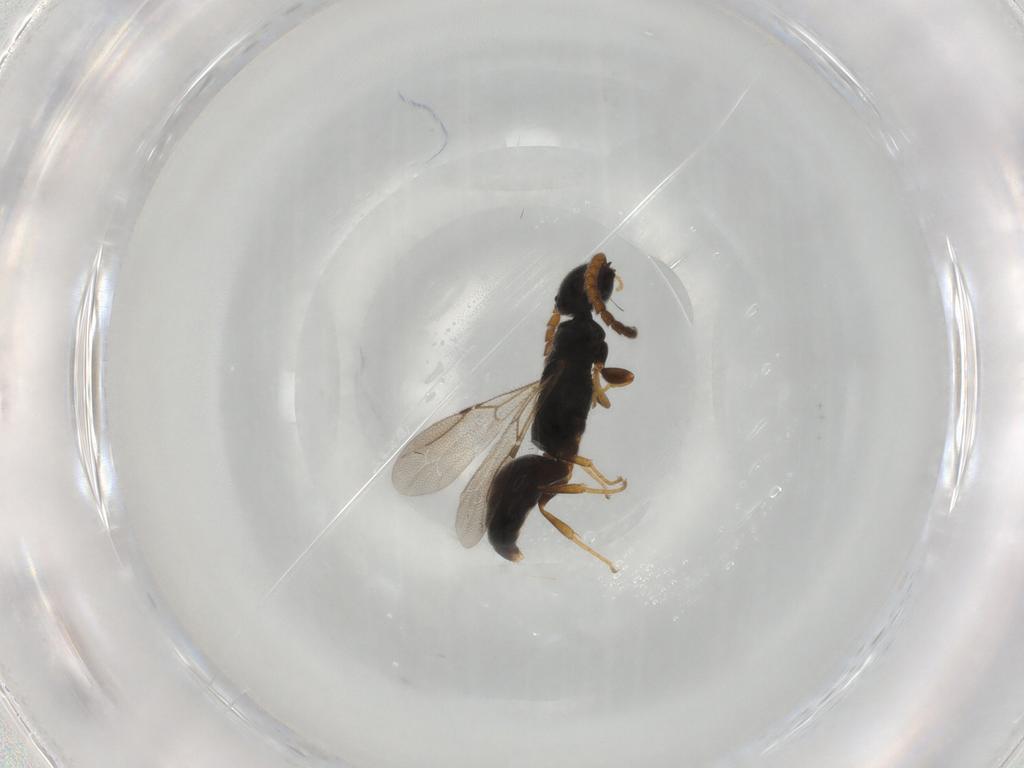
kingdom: Animalia
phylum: Arthropoda
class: Insecta
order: Hymenoptera
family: Bethylidae
